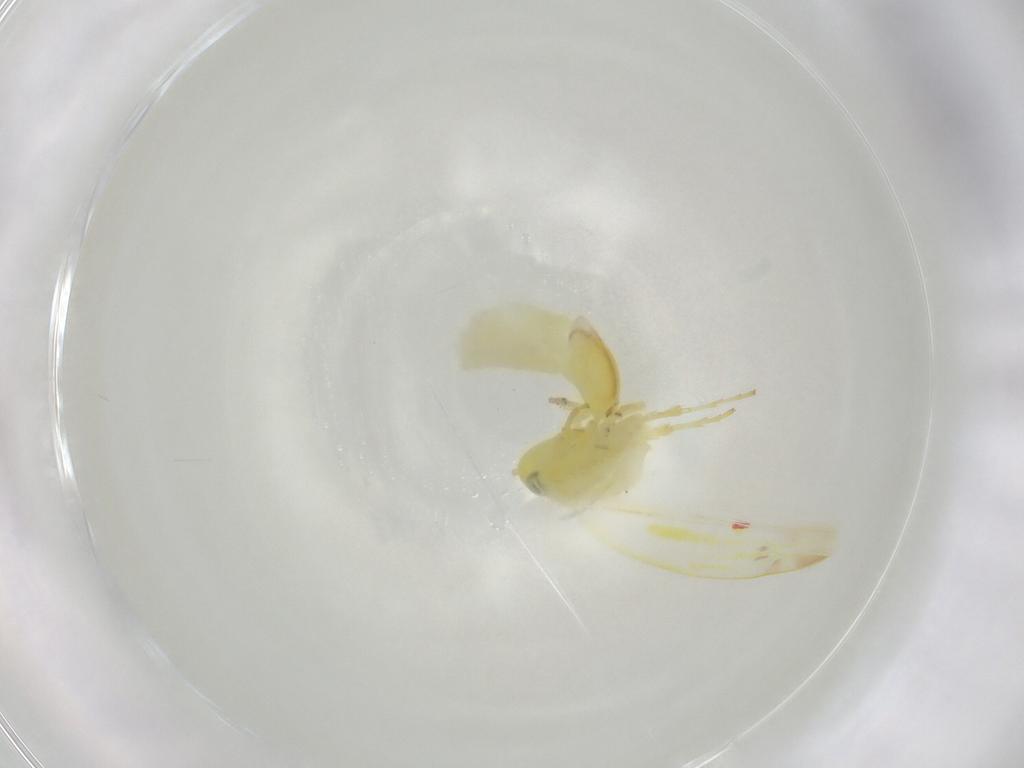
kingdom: Animalia
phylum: Arthropoda
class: Insecta
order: Hemiptera
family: Cicadellidae
